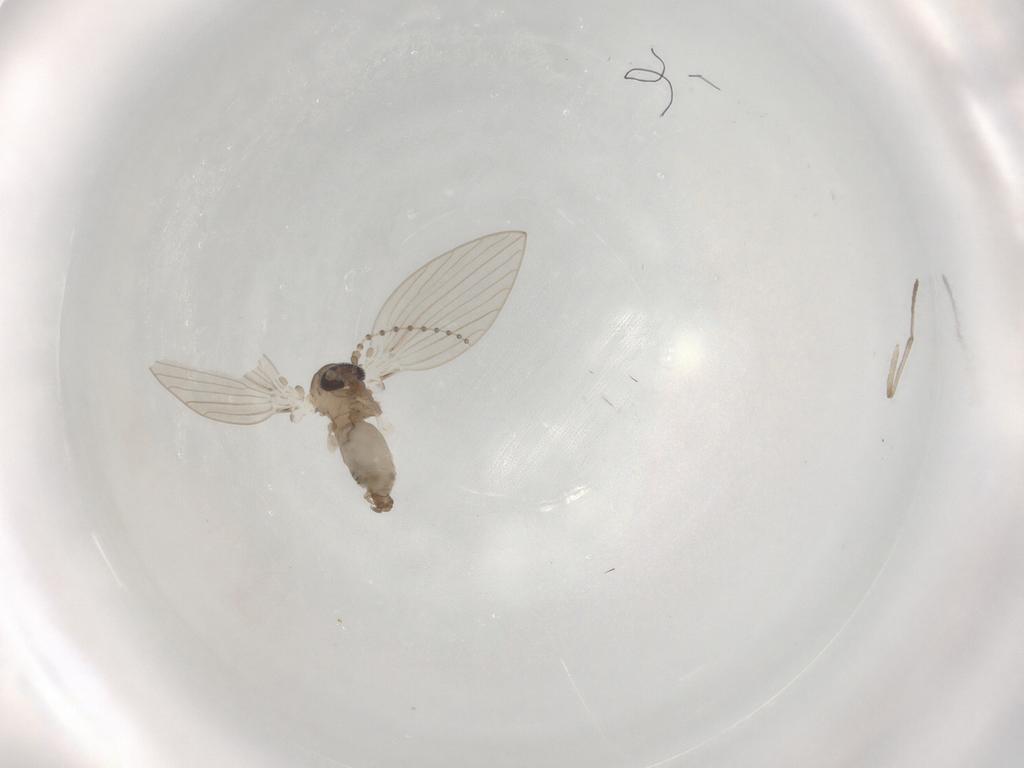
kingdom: Animalia
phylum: Arthropoda
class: Insecta
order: Diptera
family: Psychodidae
